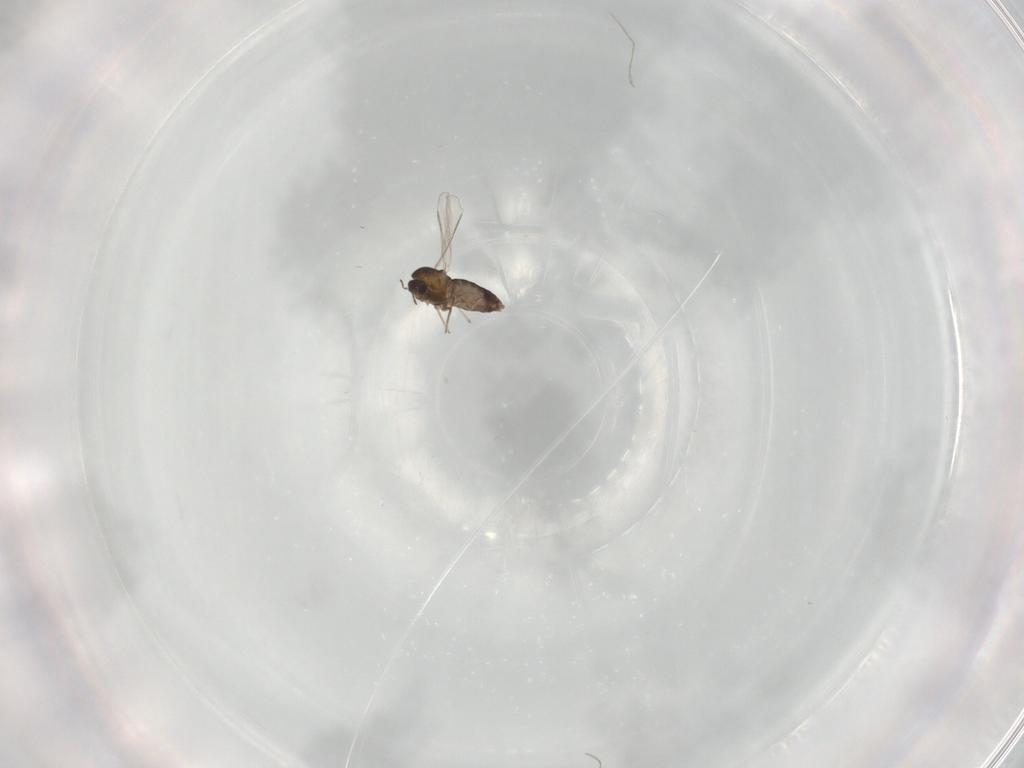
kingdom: Animalia
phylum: Arthropoda
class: Insecta
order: Diptera
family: Chironomidae
